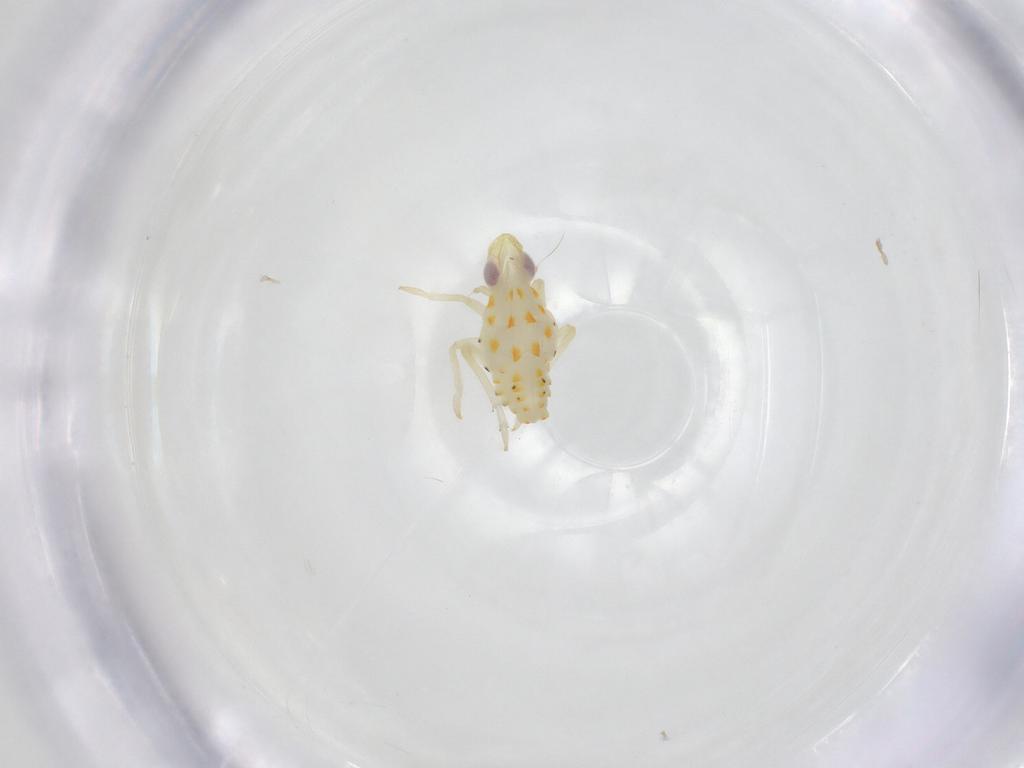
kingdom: Animalia
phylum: Arthropoda
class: Insecta
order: Hemiptera
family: Tropiduchidae
